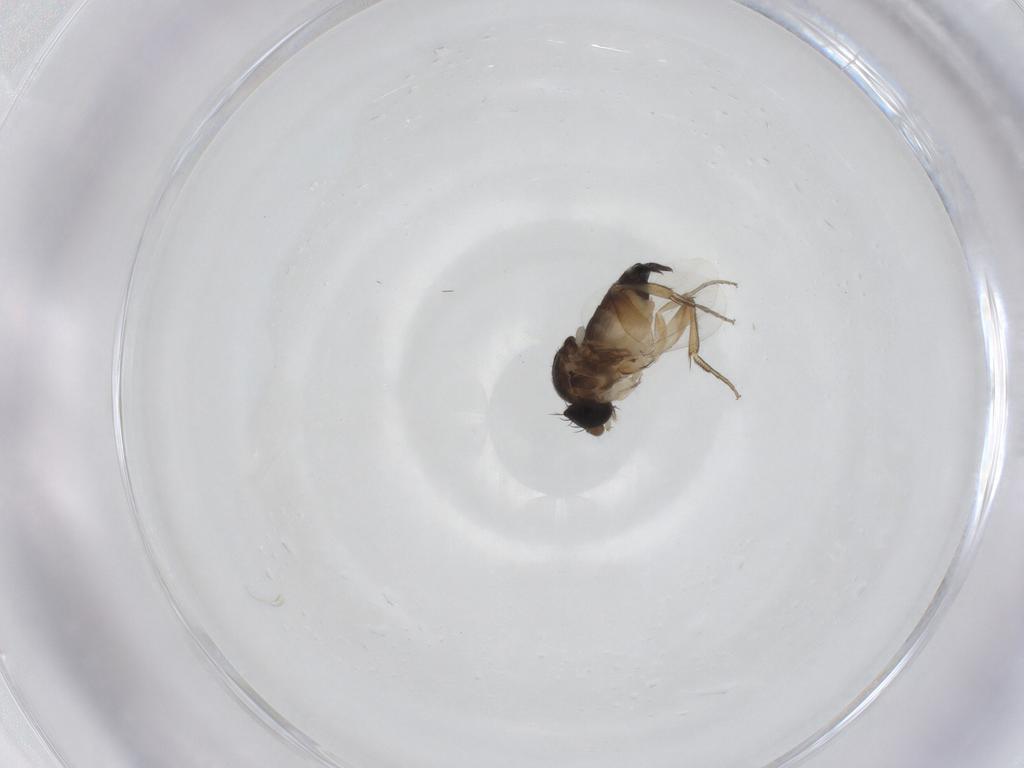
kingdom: Animalia
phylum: Arthropoda
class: Insecta
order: Diptera
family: Phoridae
